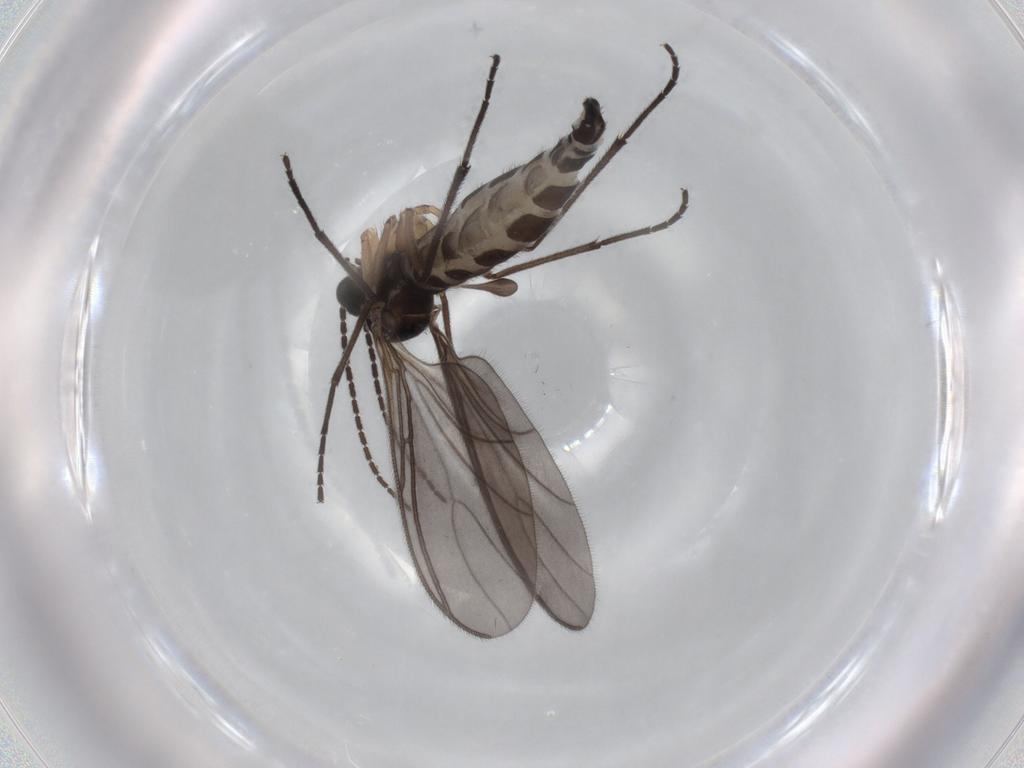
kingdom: Animalia
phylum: Arthropoda
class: Insecta
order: Diptera
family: Sciaridae
